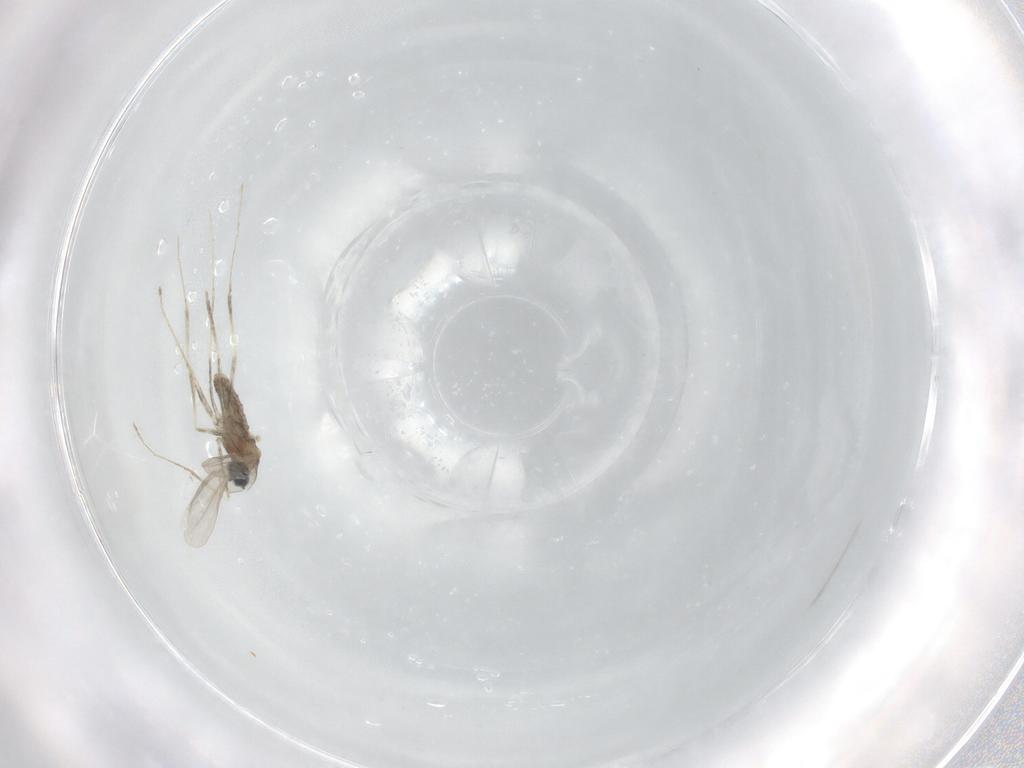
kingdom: Animalia
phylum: Arthropoda
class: Insecta
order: Diptera
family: Cecidomyiidae
